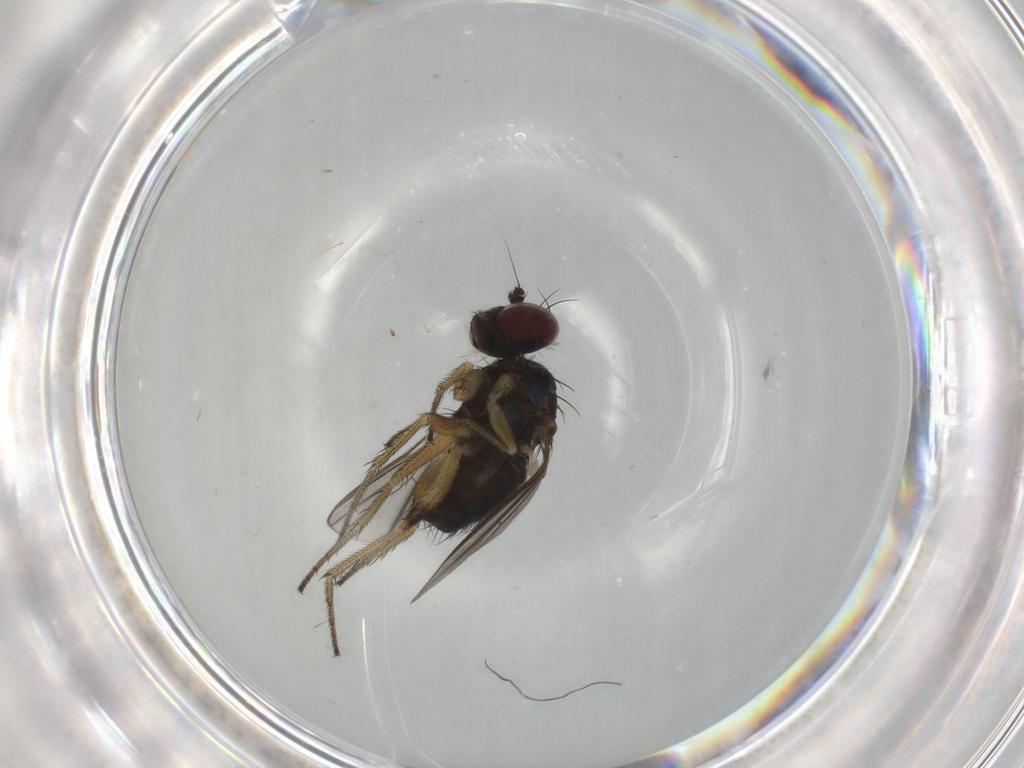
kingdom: Animalia
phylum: Arthropoda
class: Insecta
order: Diptera
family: Dolichopodidae
